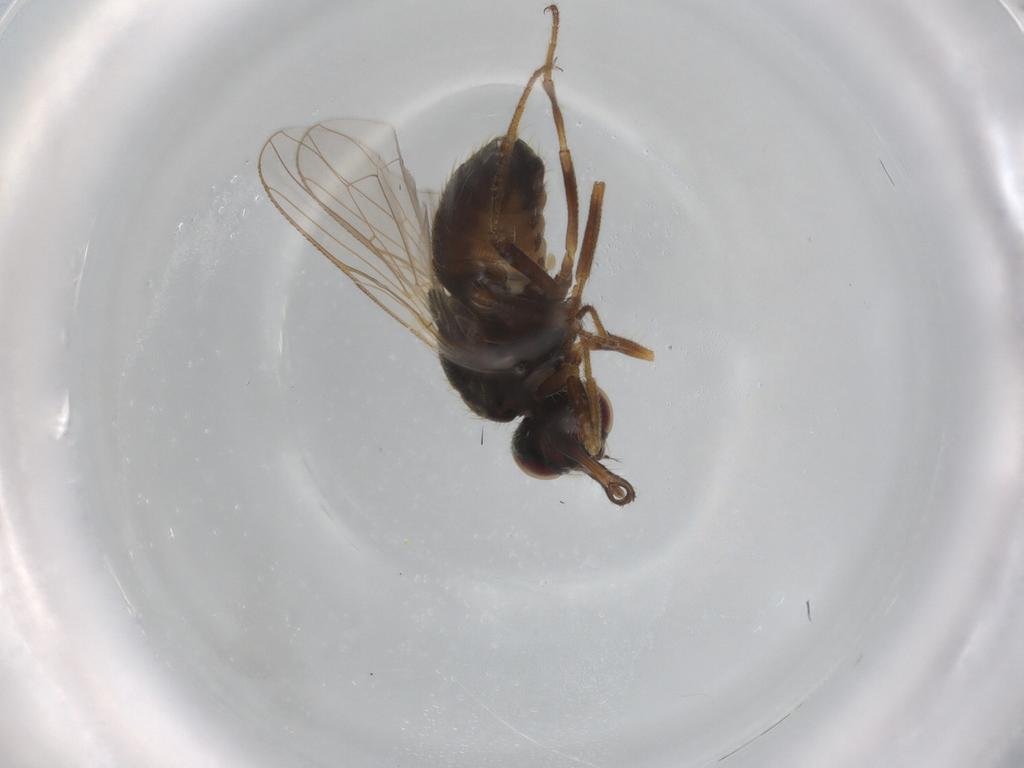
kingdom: Animalia
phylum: Arthropoda
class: Insecta
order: Diptera
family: Muscidae
